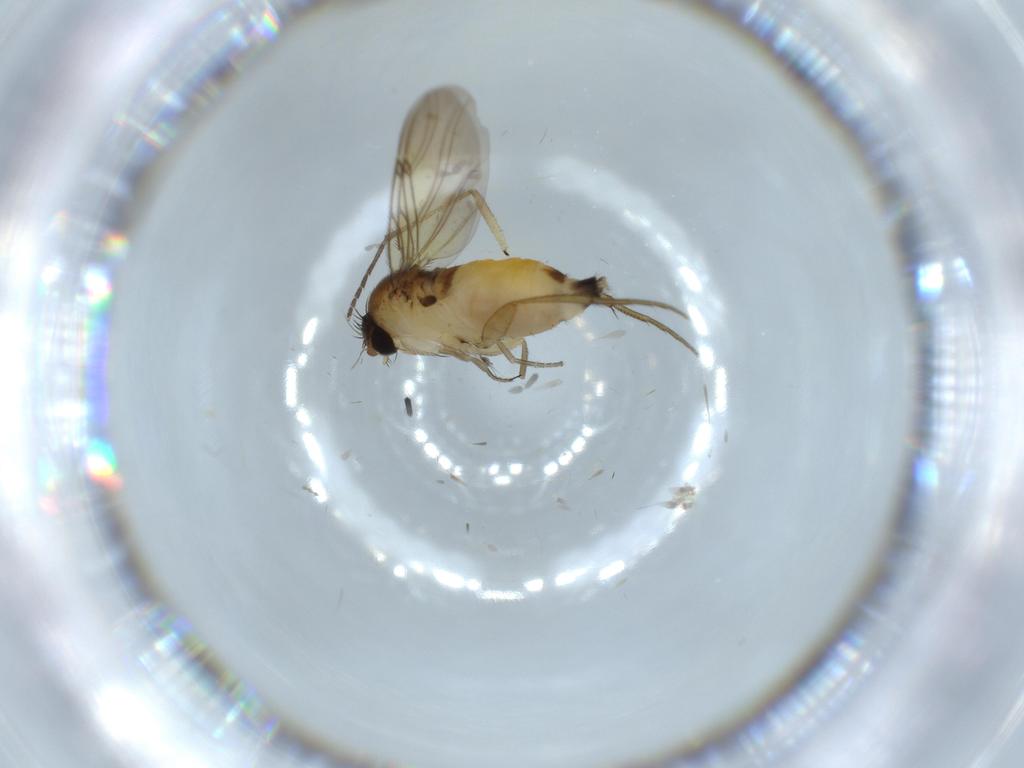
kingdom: Animalia
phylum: Arthropoda
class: Insecta
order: Diptera
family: Sciaridae
